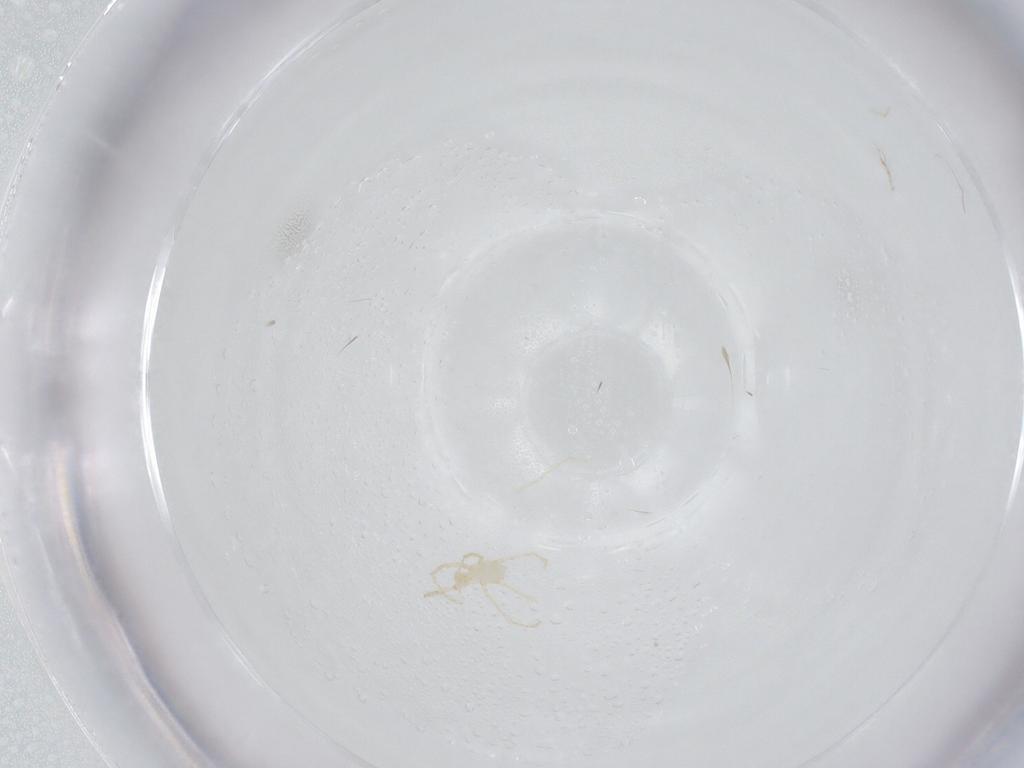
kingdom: Animalia
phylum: Arthropoda
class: Arachnida
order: Trombidiformes
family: Erythraeidae
